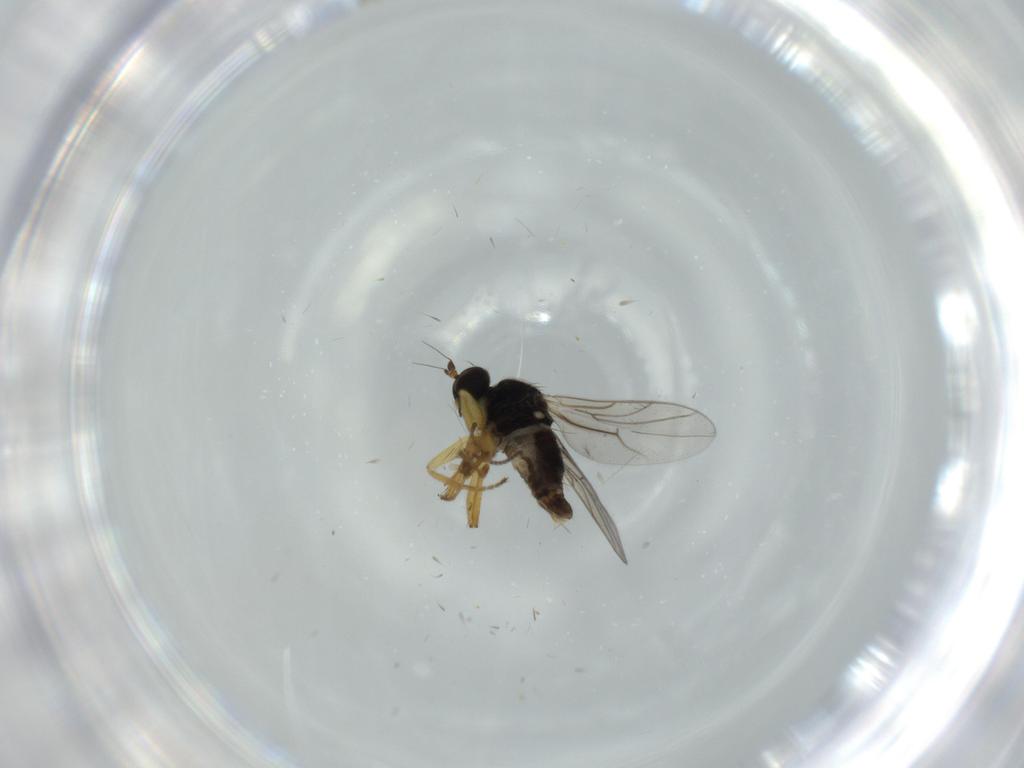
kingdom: Animalia
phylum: Arthropoda
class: Insecta
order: Diptera
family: Hybotidae
